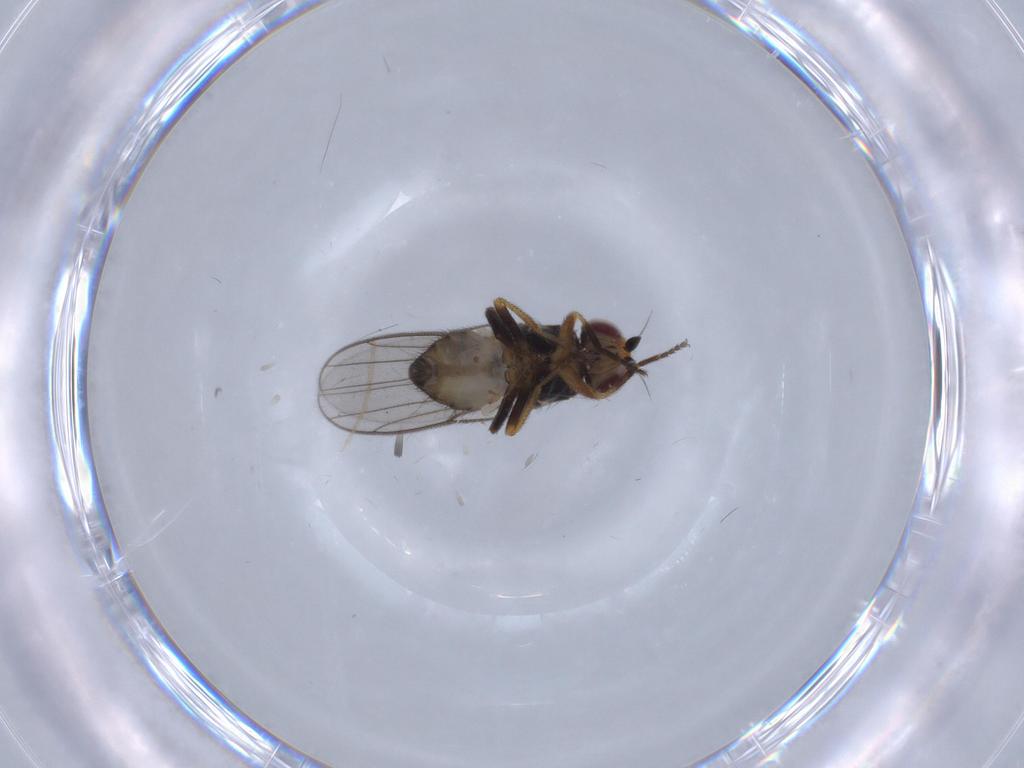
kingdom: Animalia
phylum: Arthropoda
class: Insecta
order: Diptera
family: Chloropidae
